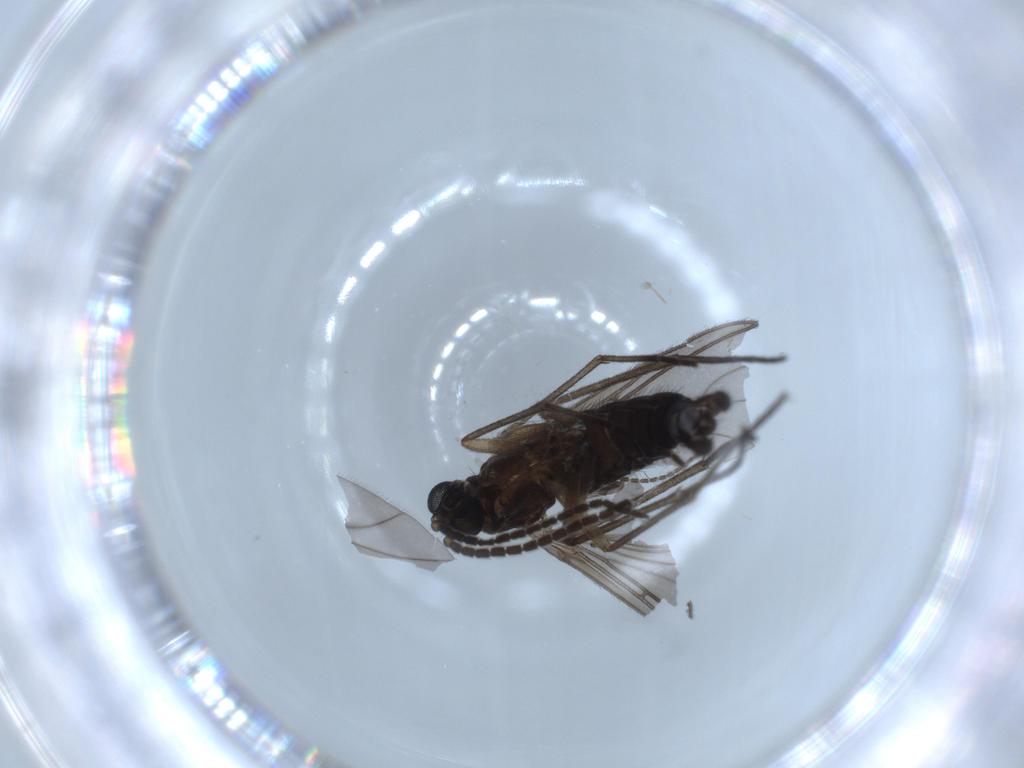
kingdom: Animalia
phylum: Arthropoda
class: Insecta
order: Diptera
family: Sciaridae
